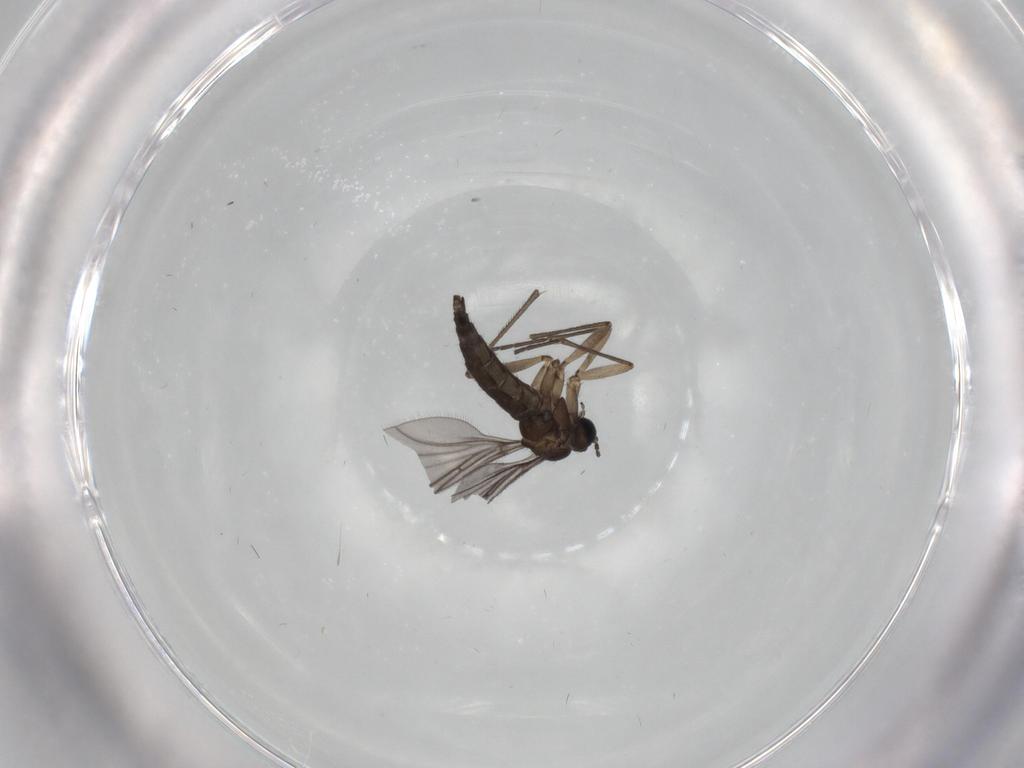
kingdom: Animalia
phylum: Arthropoda
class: Insecta
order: Diptera
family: Sciaridae
